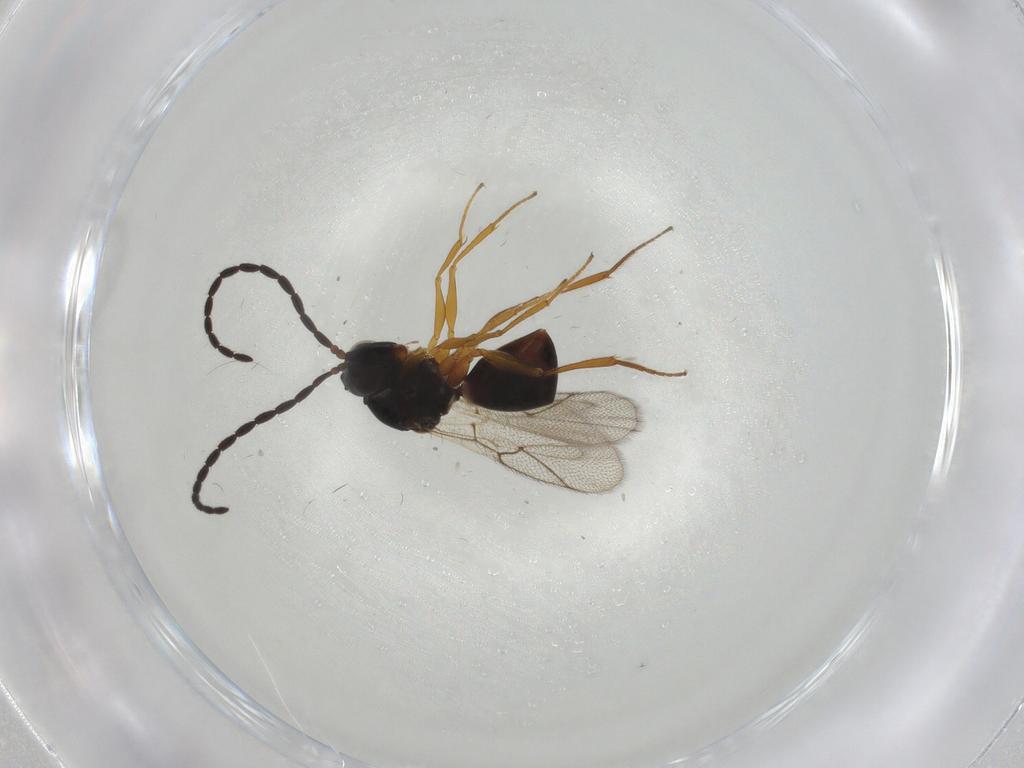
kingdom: Animalia
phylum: Arthropoda
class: Insecta
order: Hymenoptera
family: Figitidae
